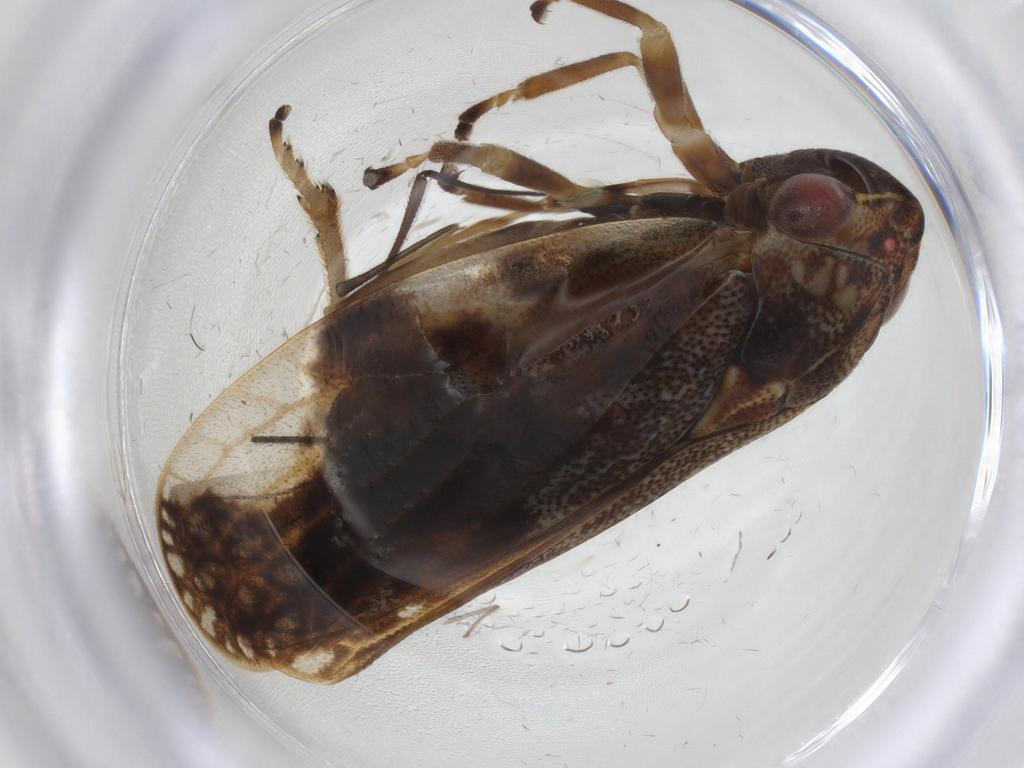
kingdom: Animalia
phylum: Arthropoda
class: Insecta
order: Hemiptera
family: Aphrophoridae
